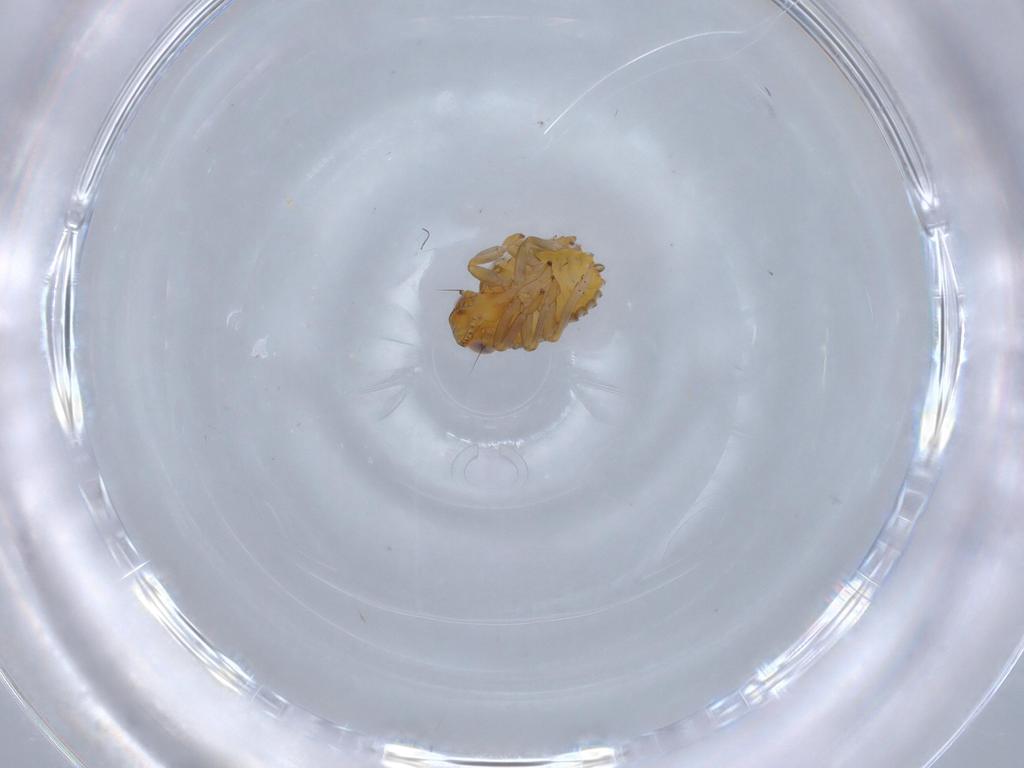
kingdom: Animalia
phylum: Arthropoda
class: Insecta
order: Hemiptera
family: Issidae
